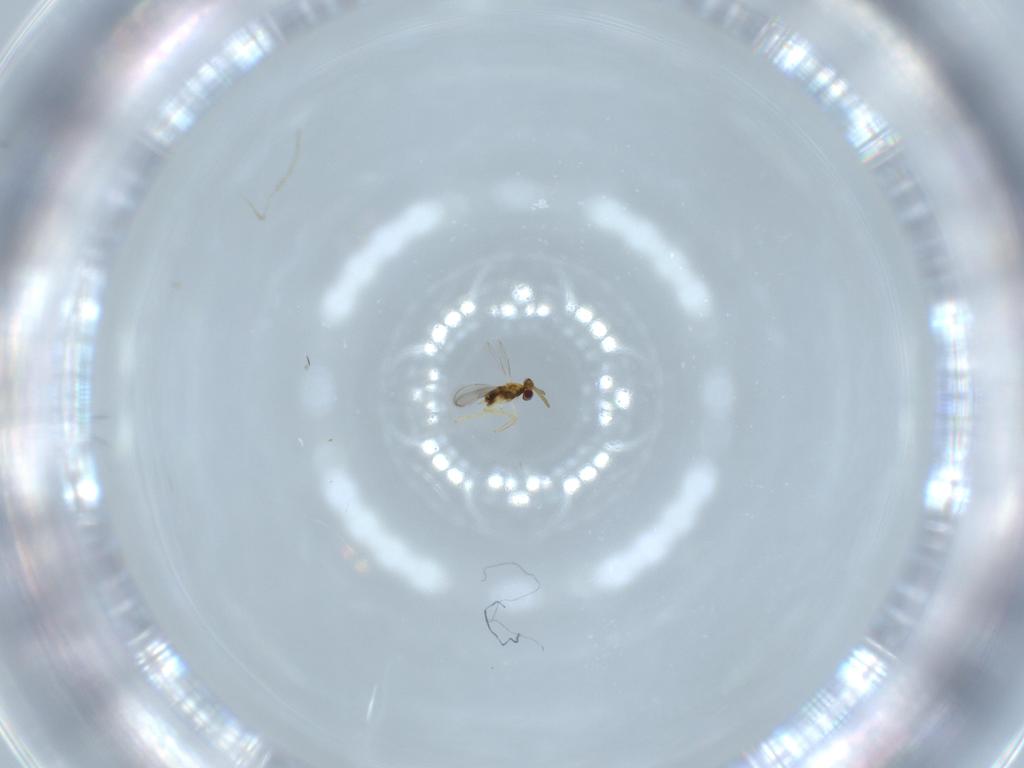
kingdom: Animalia
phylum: Arthropoda
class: Insecta
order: Hymenoptera
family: Aphelinidae
